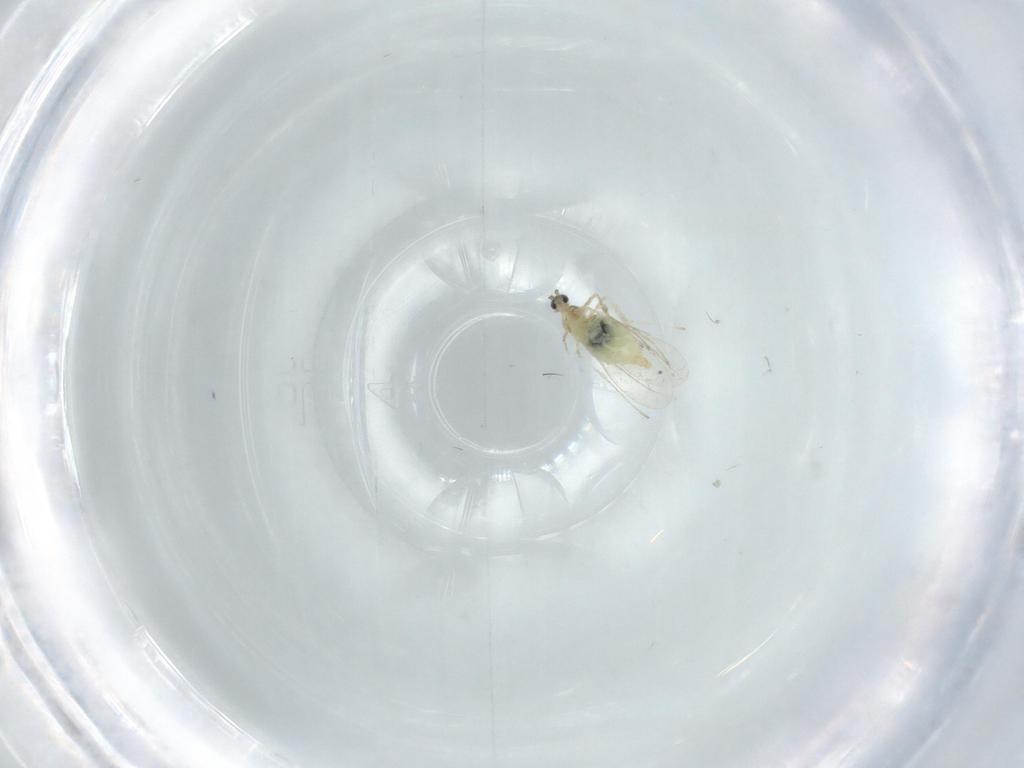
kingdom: Animalia
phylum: Arthropoda
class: Insecta
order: Diptera
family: Cecidomyiidae
